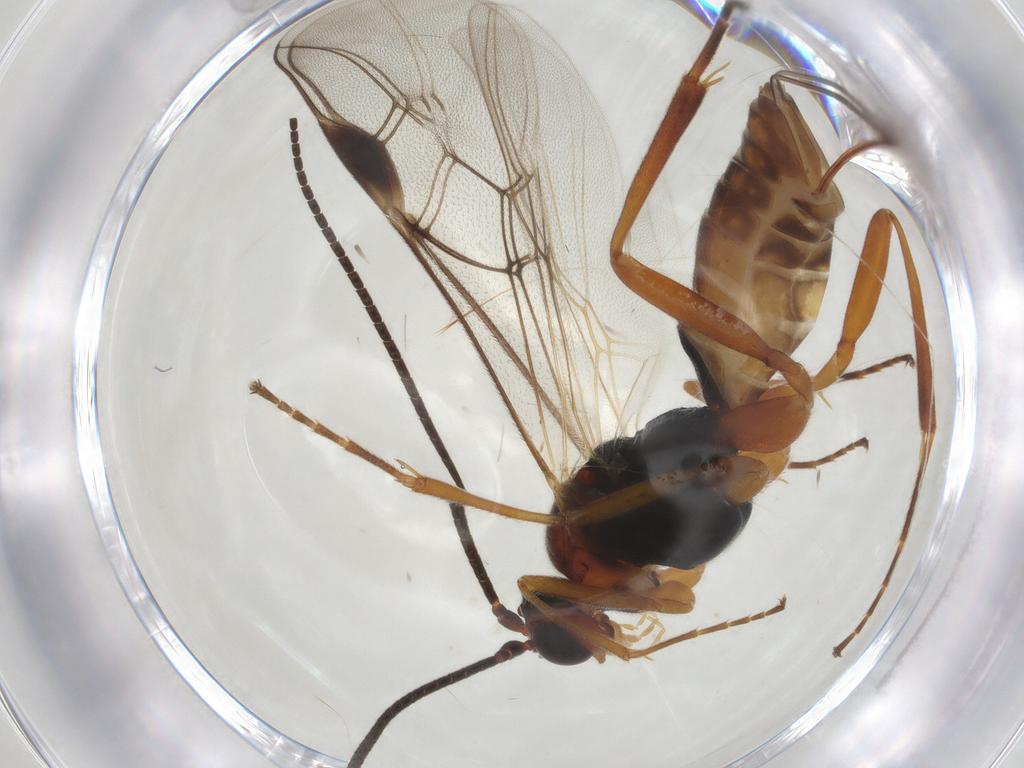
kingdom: Animalia
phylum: Arthropoda
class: Insecta
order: Hymenoptera
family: Braconidae
